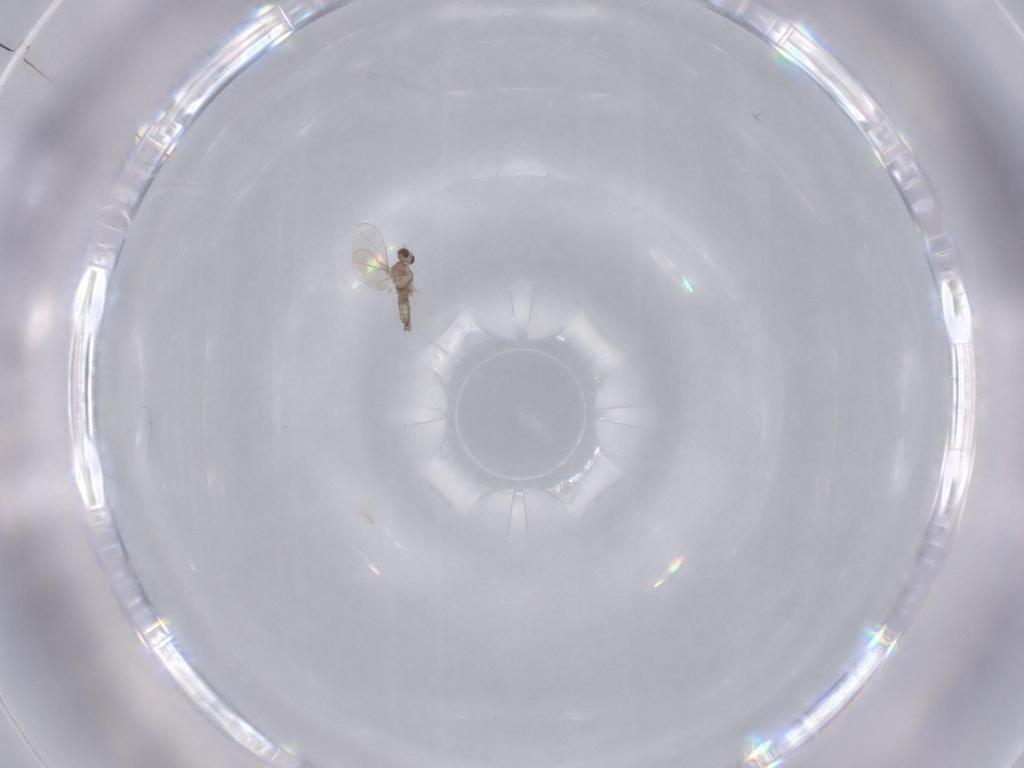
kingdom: Animalia
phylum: Arthropoda
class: Insecta
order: Diptera
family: Cecidomyiidae
